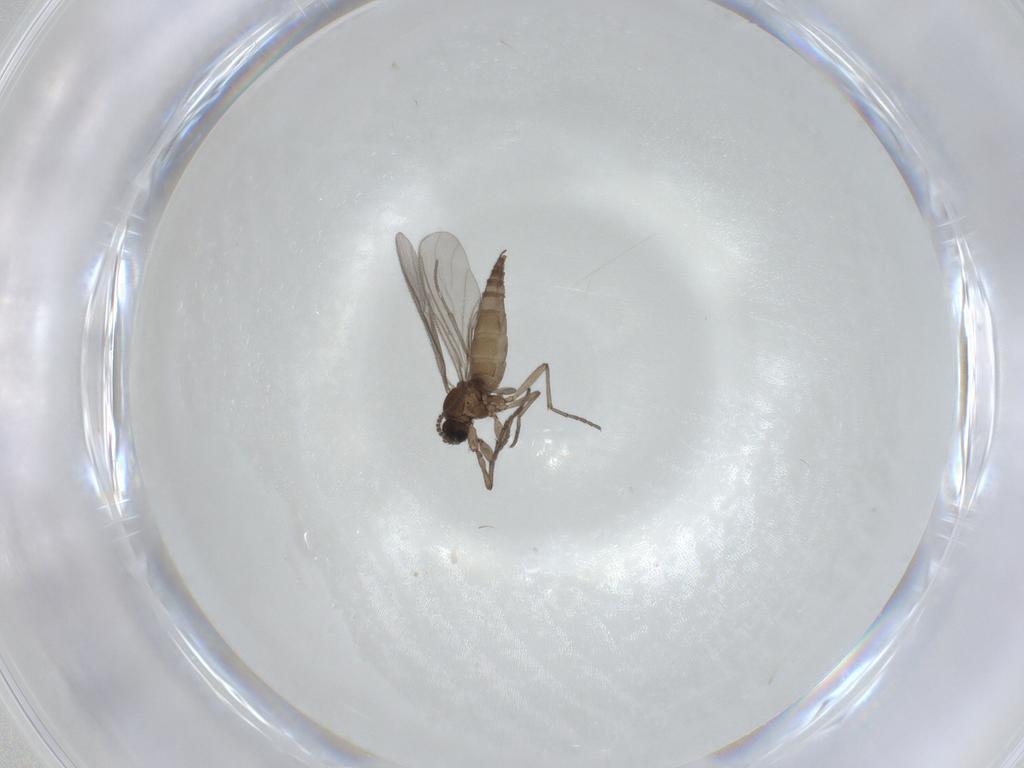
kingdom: Animalia
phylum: Arthropoda
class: Insecta
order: Diptera
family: Sciaridae
